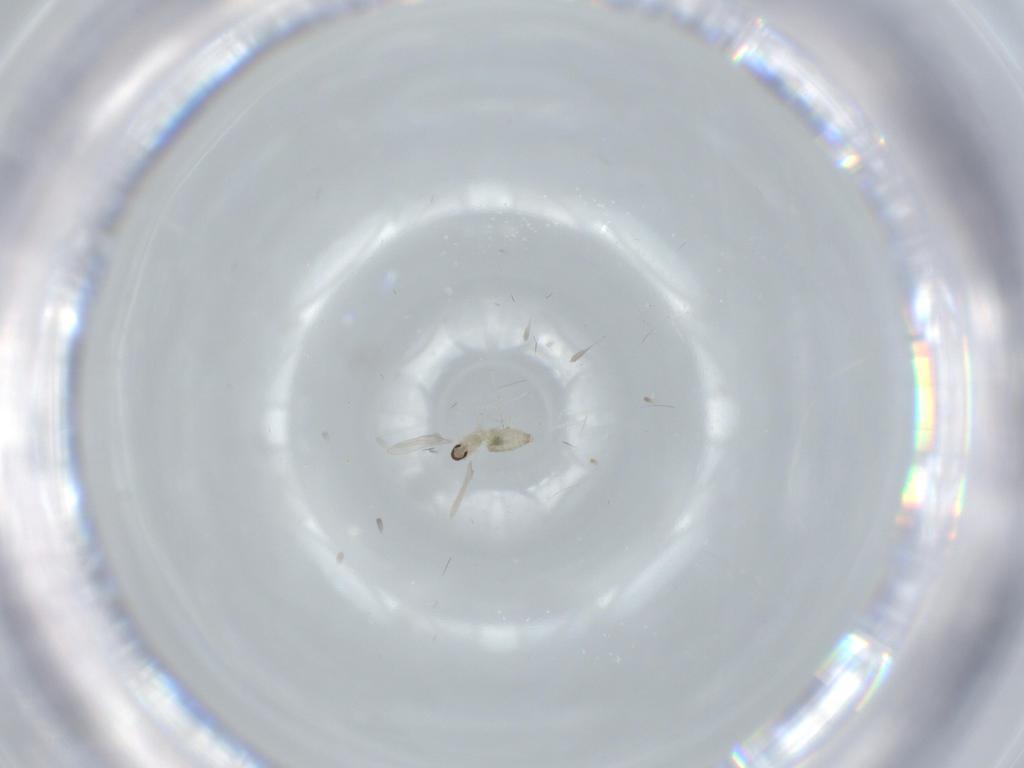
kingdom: Animalia
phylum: Arthropoda
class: Insecta
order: Diptera
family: Cecidomyiidae
